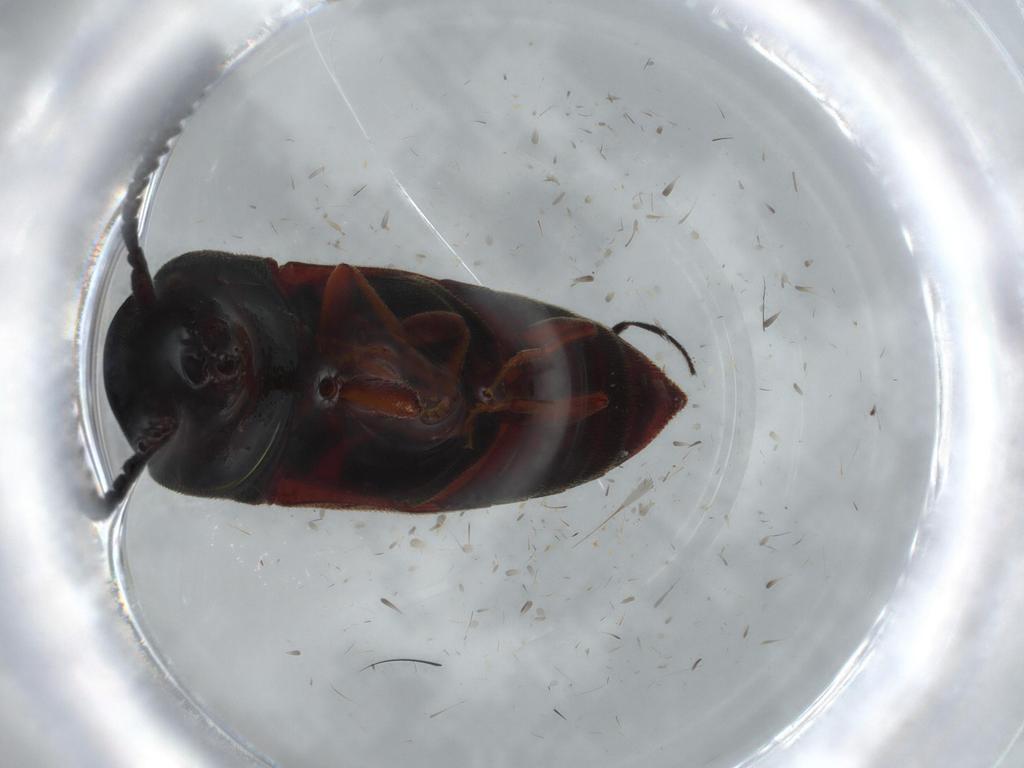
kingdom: Animalia
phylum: Arthropoda
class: Insecta
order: Coleoptera
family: Eucnemidae
